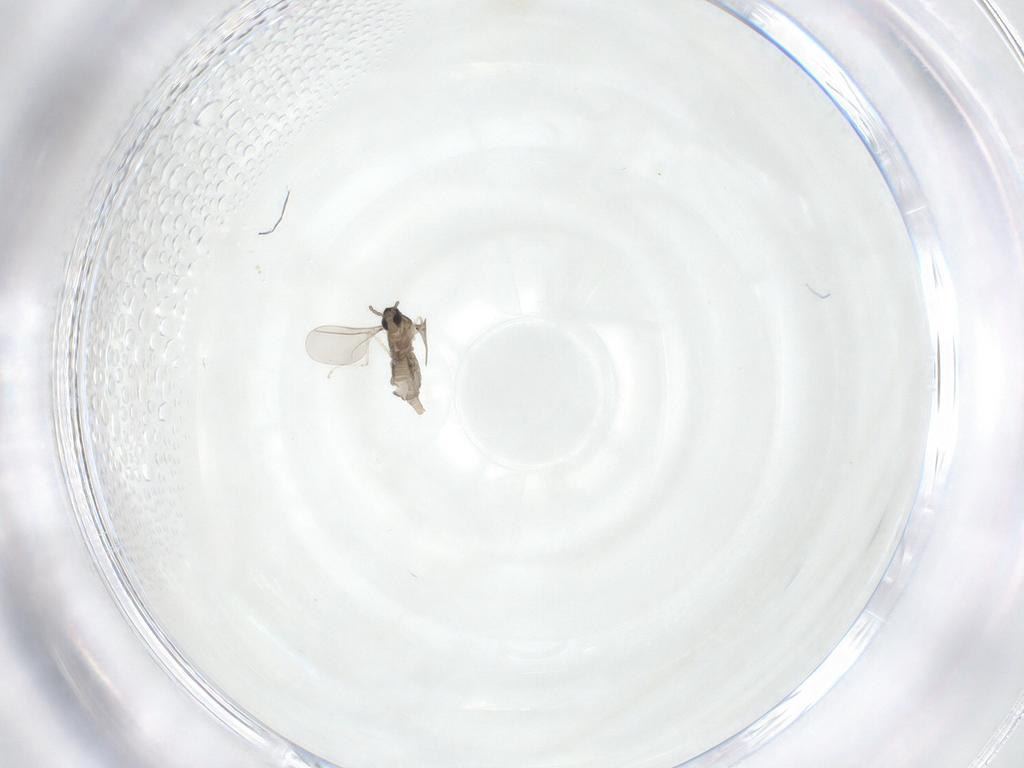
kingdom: Animalia
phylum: Arthropoda
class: Insecta
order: Diptera
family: Cecidomyiidae
